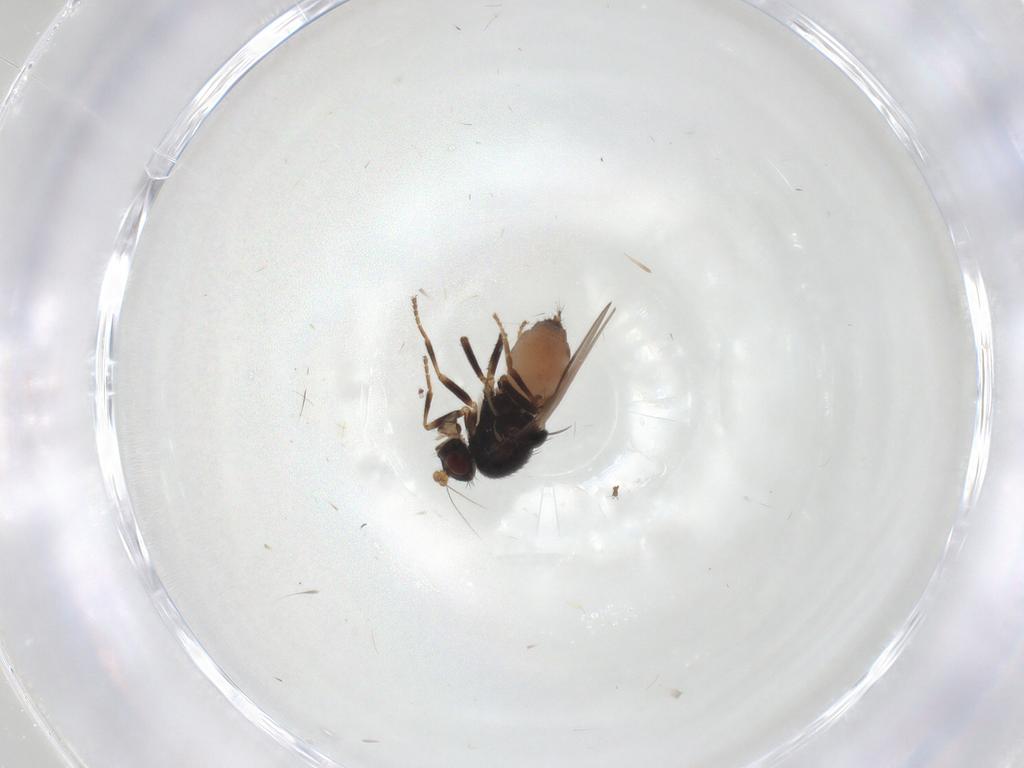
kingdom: Animalia
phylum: Arthropoda
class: Insecta
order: Diptera
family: Sphaeroceridae
